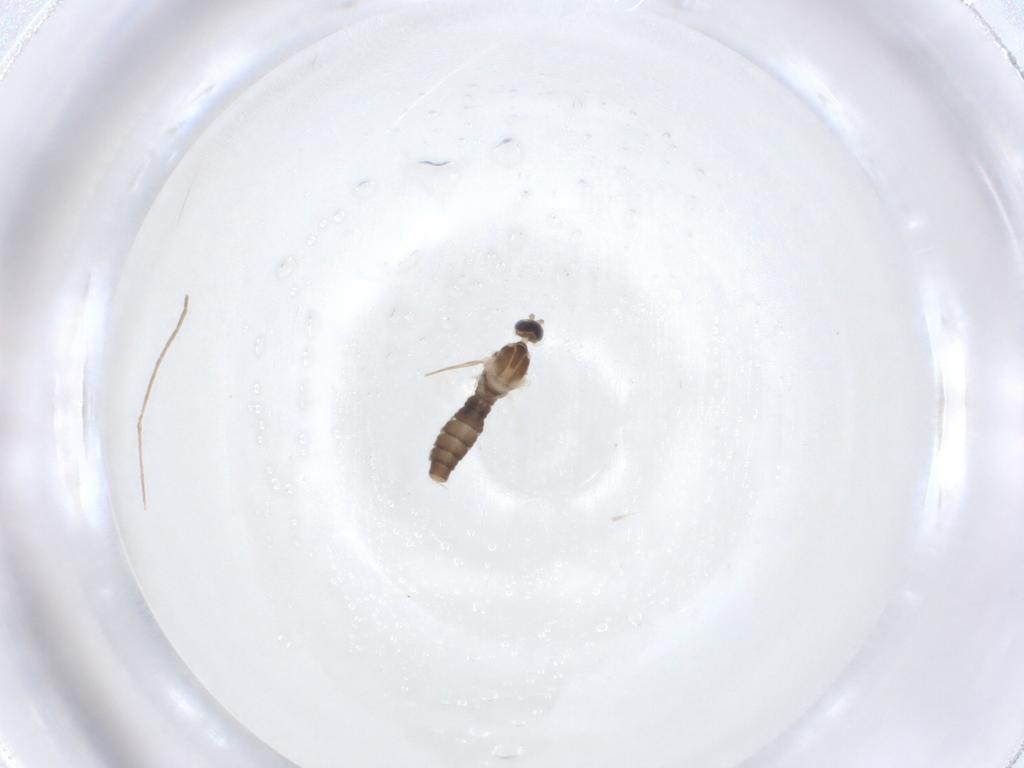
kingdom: Animalia
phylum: Arthropoda
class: Insecta
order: Diptera
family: Cecidomyiidae
